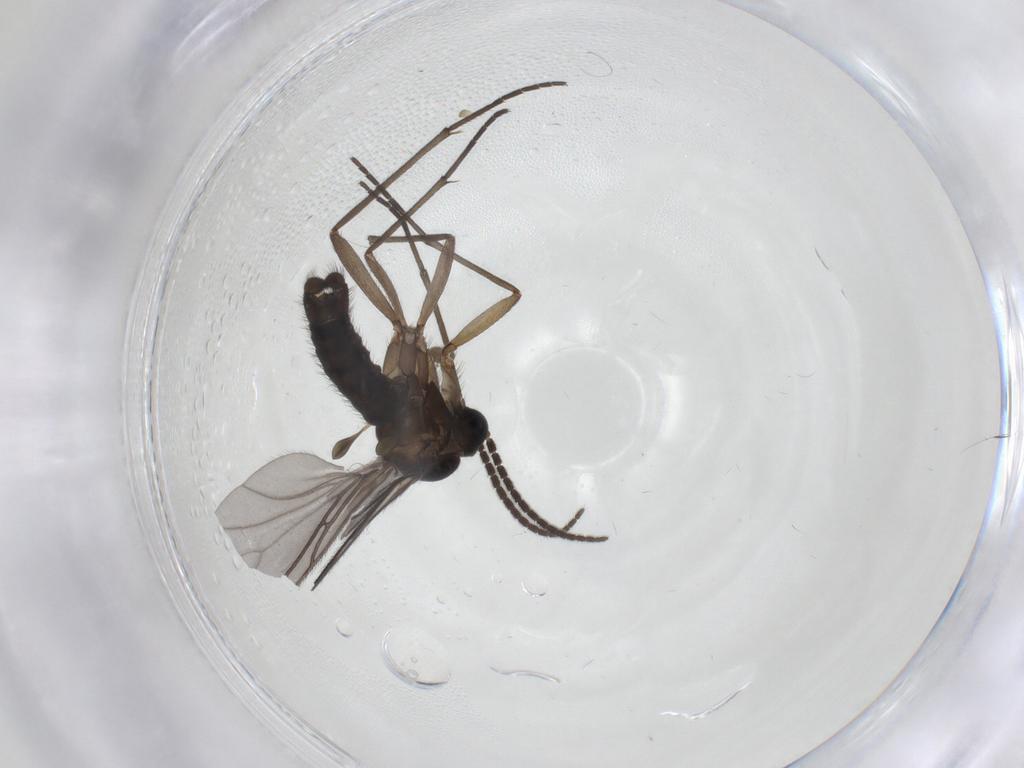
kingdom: Animalia
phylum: Arthropoda
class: Insecta
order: Diptera
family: Sciaridae
